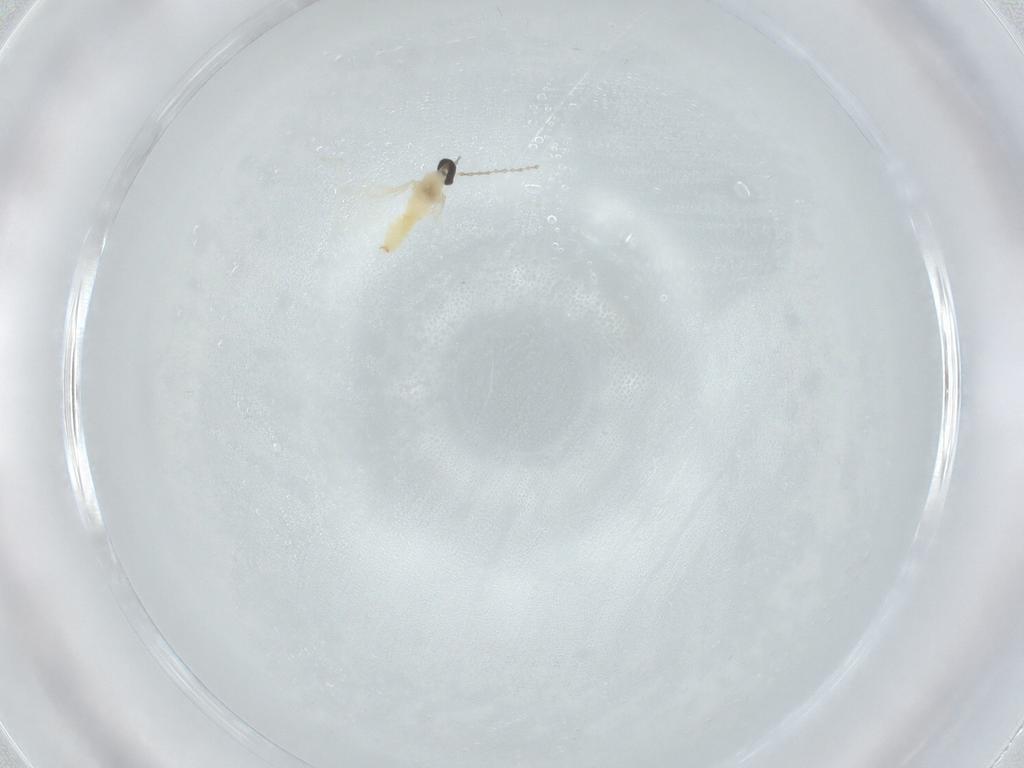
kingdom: Animalia
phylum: Arthropoda
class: Insecta
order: Diptera
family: Cecidomyiidae
